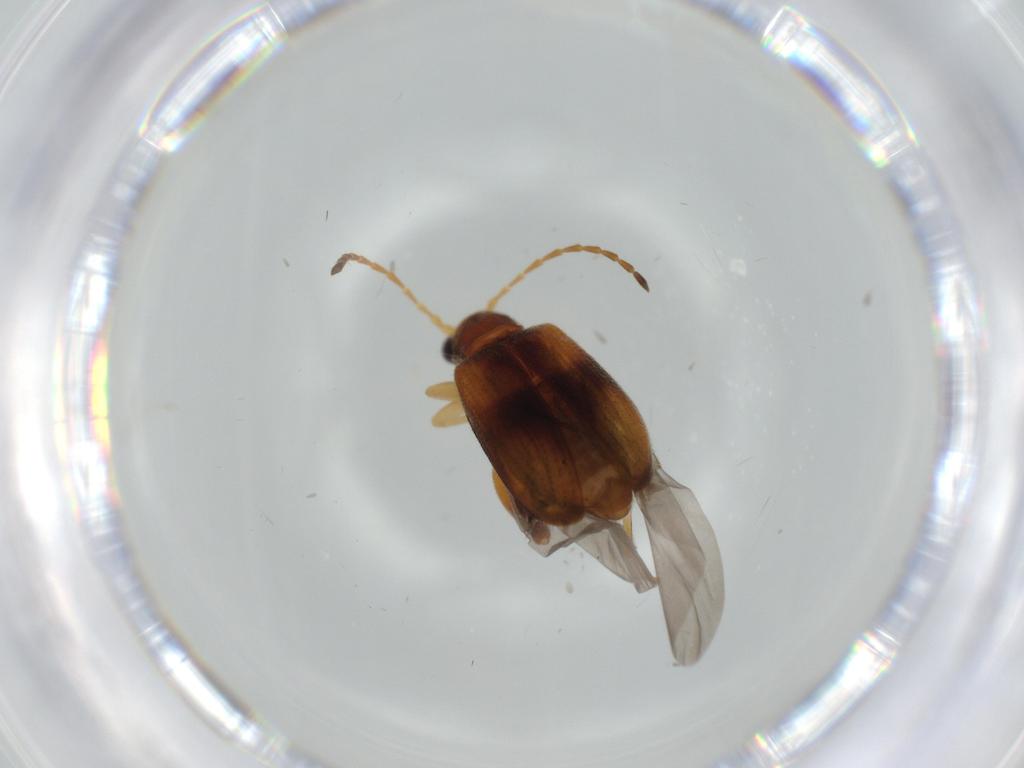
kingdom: Animalia
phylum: Arthropoda
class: Insecta
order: Coleoptera
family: Chrysomelidae
